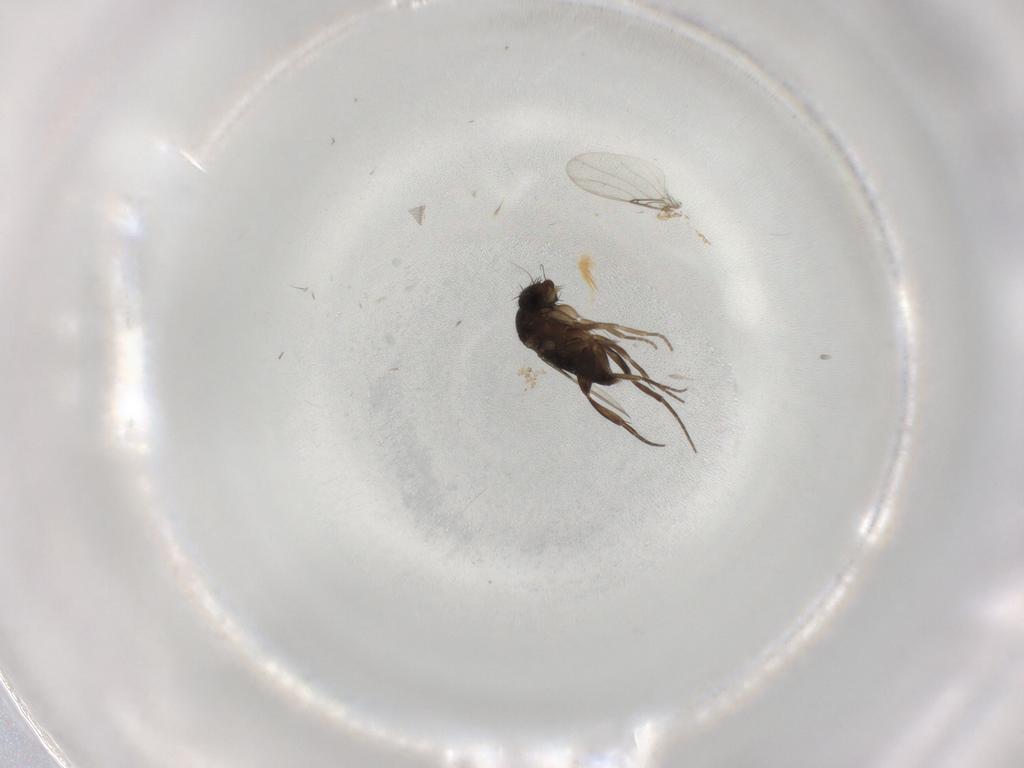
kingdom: Animalia
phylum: Arthropoda
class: Insecta
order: Diptera
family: Phoridae
